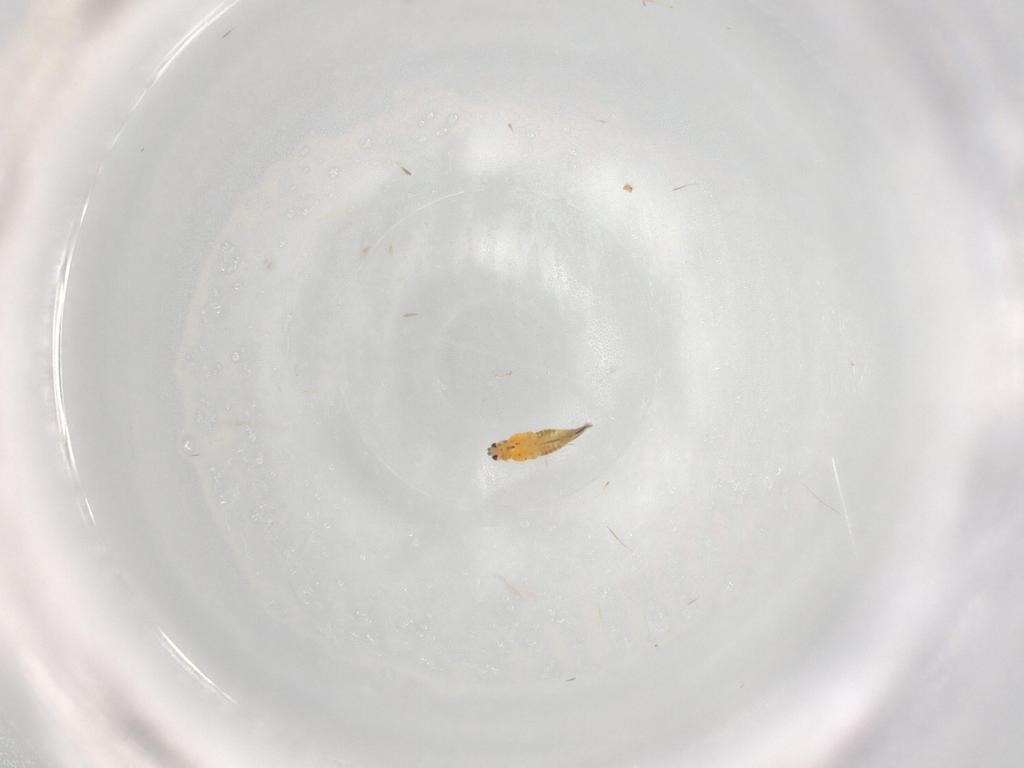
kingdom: Animalia
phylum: Arthropoda
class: Insecta
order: Thysanoptera
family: Thripidae
